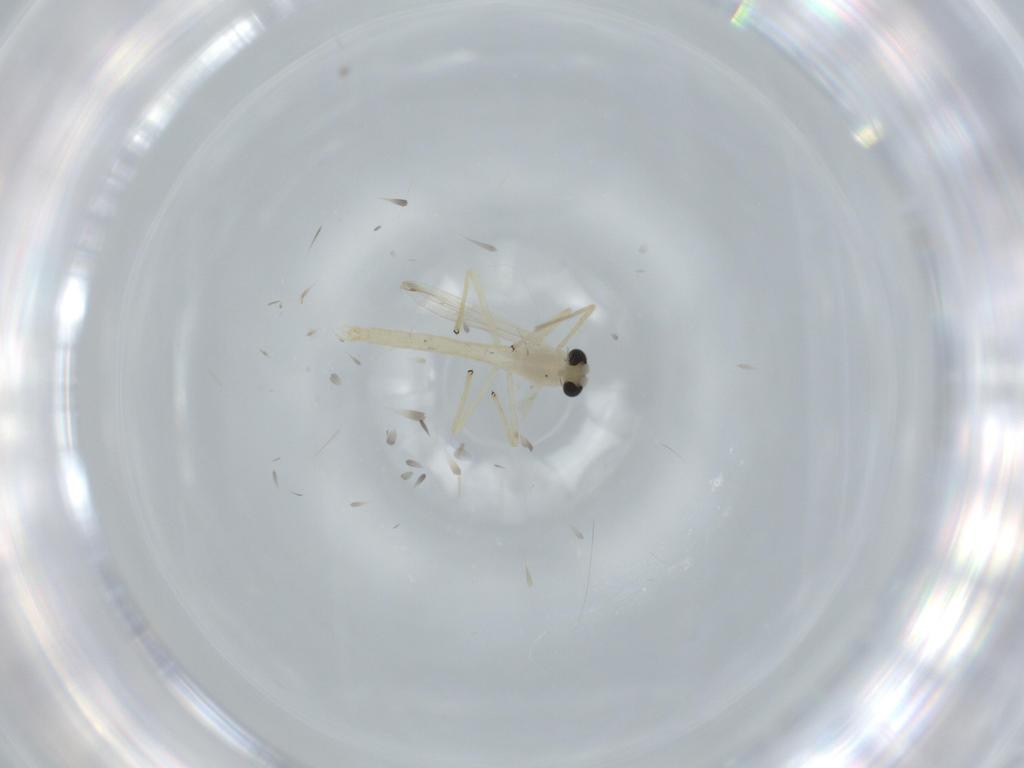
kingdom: Animalia
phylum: Arthropoda
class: Insecta
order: Diptera
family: Chironomidae
